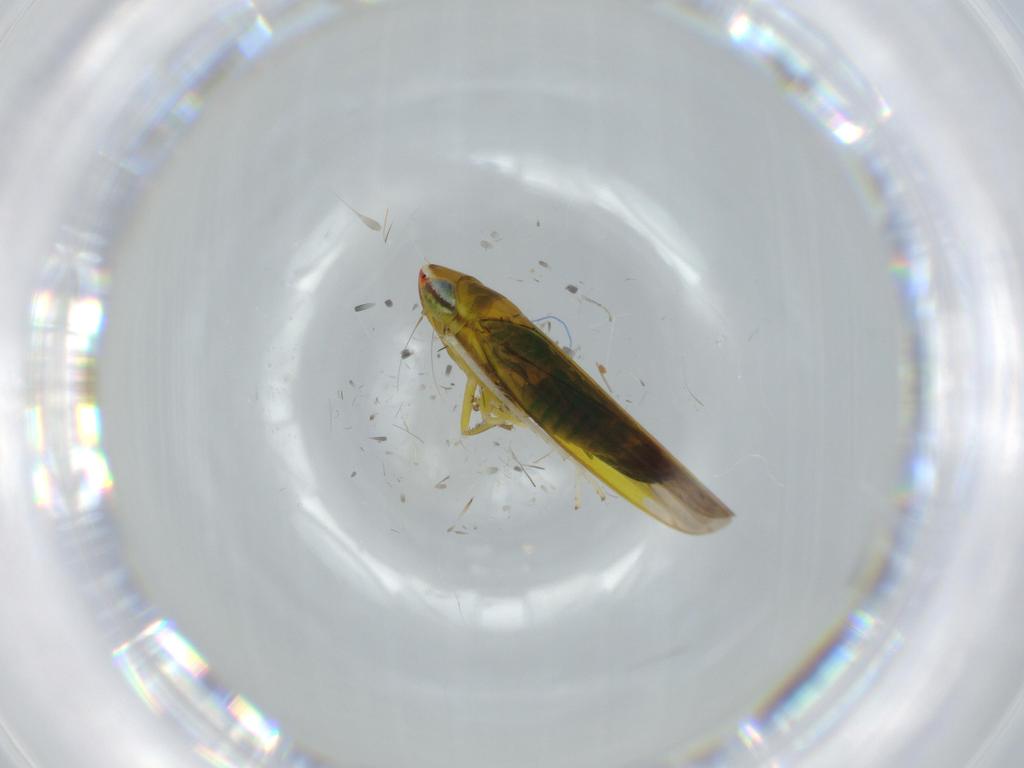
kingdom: Animalia
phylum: Arthropoda
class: Insecta
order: Hemiptera
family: Cicadellidae
